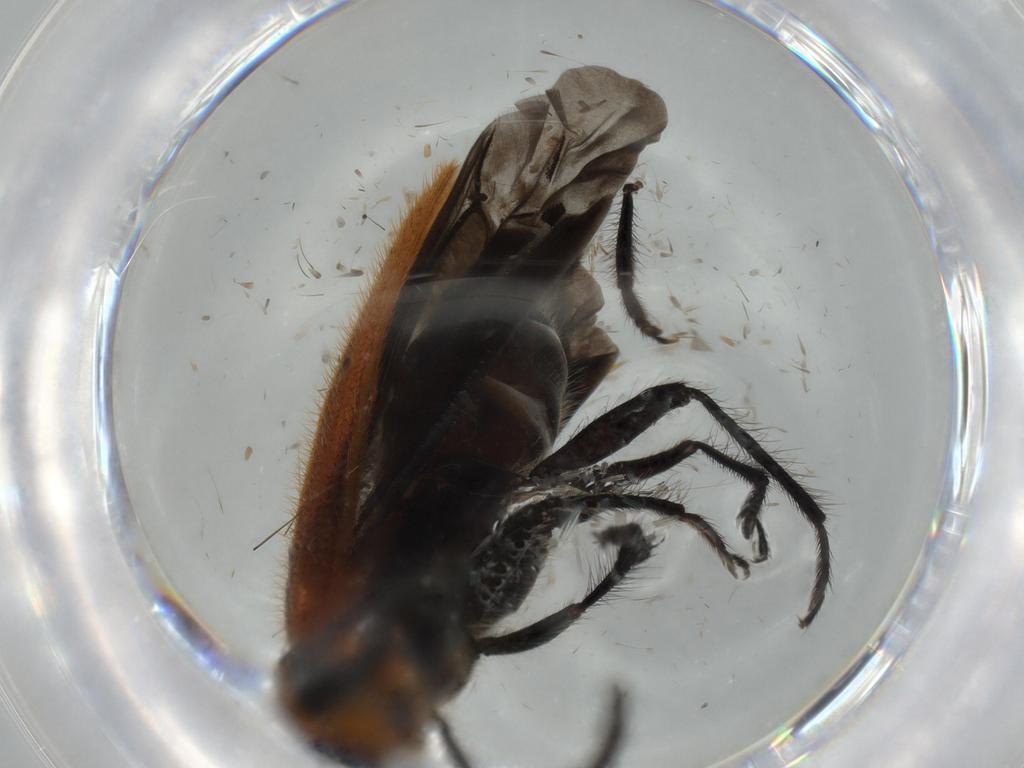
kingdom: Animalia
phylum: Arthropoda
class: Insecta
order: Coleoptera
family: Cleridae
